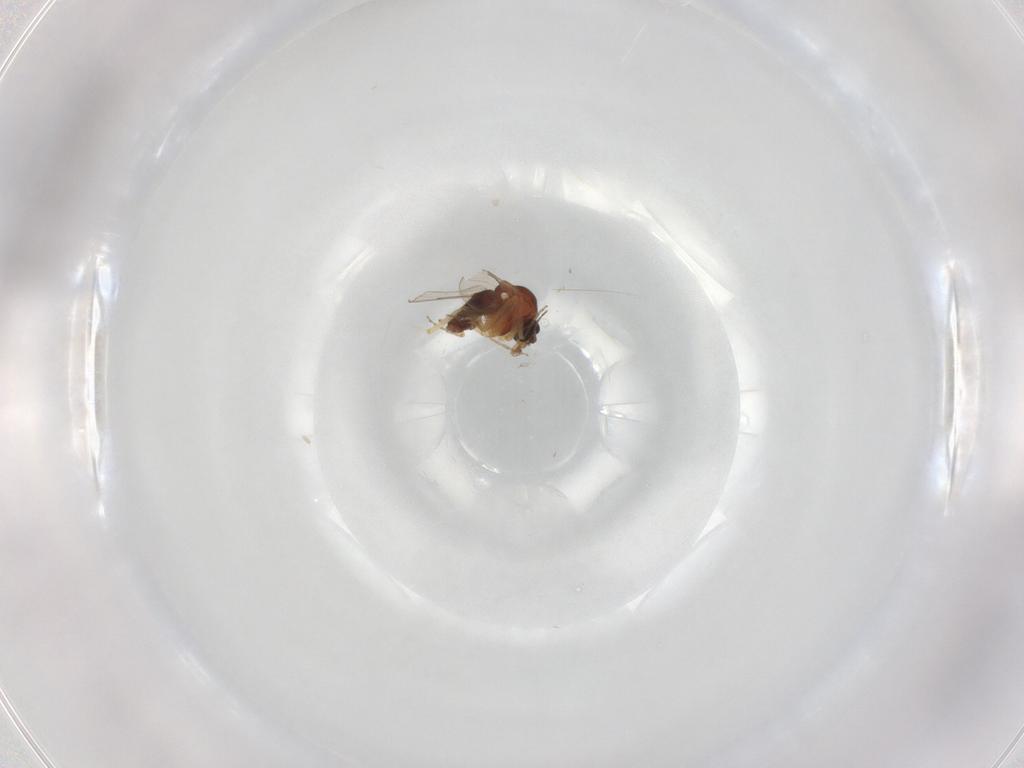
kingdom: Animalia
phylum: Arthropoda
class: Insecta
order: Diptera
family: Ceratopogonidae
